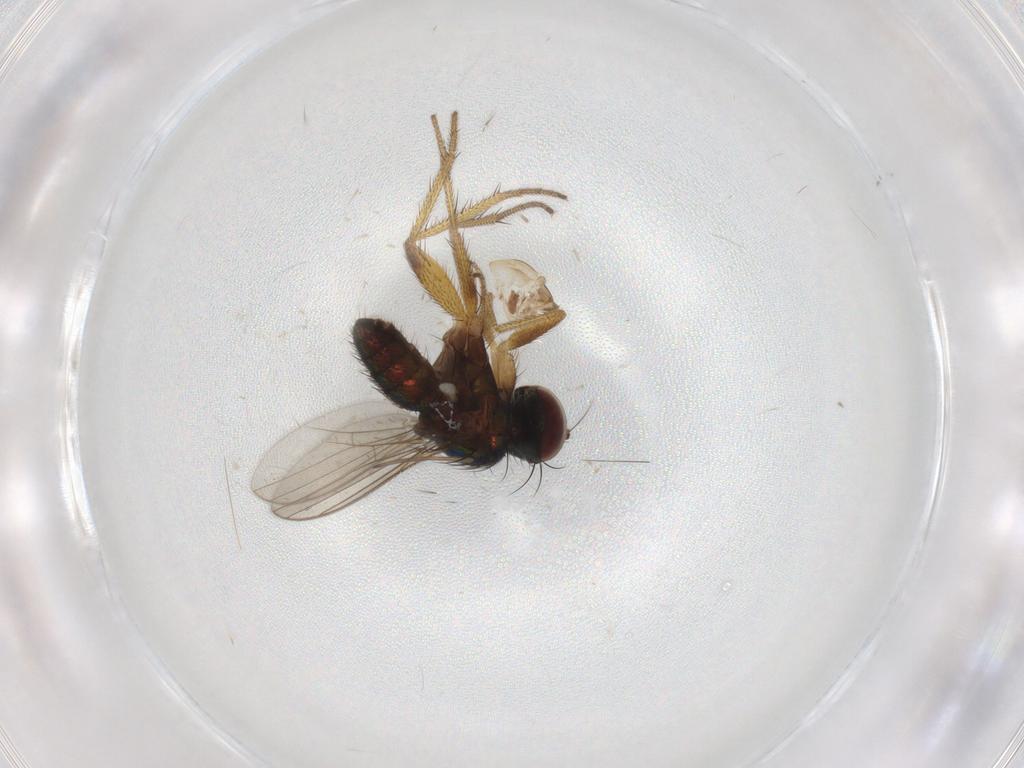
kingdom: Animalia
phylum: Arthropoda
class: Insecta
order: Diptera
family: Dolichopodidae
